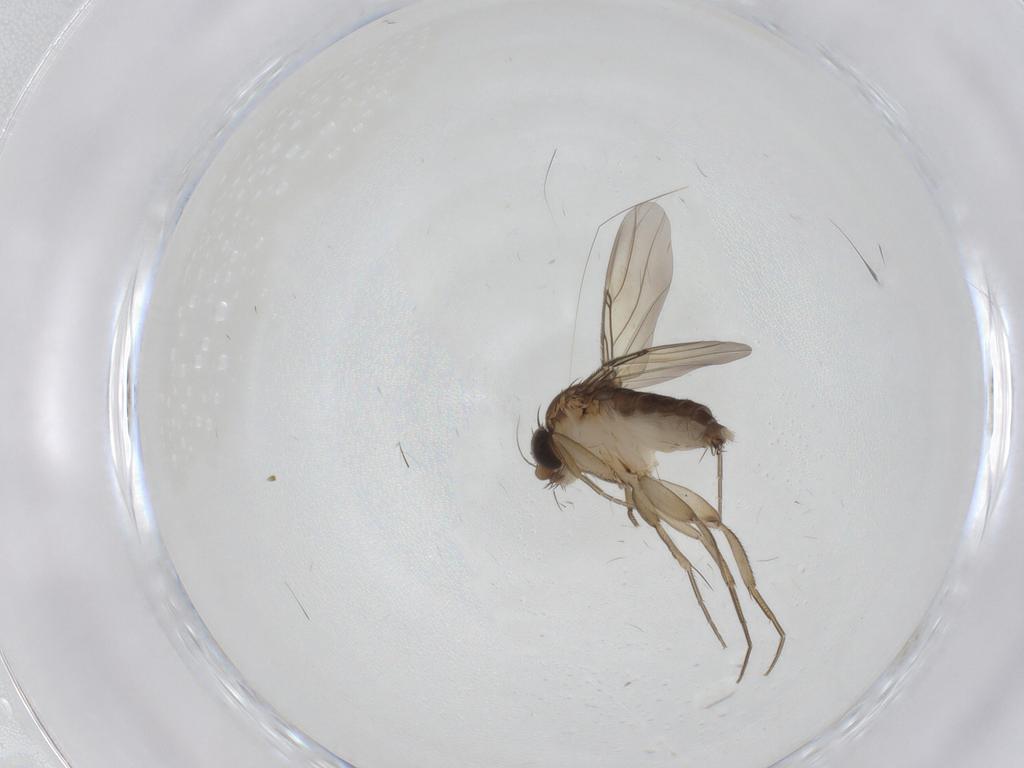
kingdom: Animalia
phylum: Arthropoda
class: Insecta
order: Diptera
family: Phoridae
